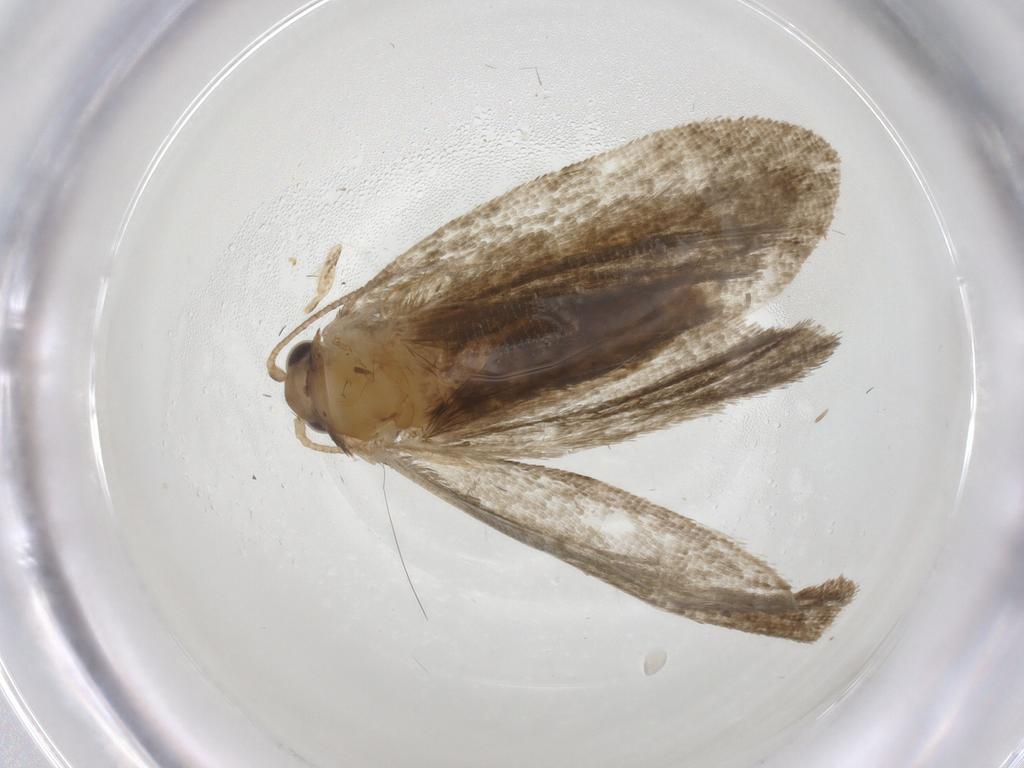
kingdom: Animalia
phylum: Arthropoda
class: Insecta
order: Lepidoptera
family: Tortricidae
